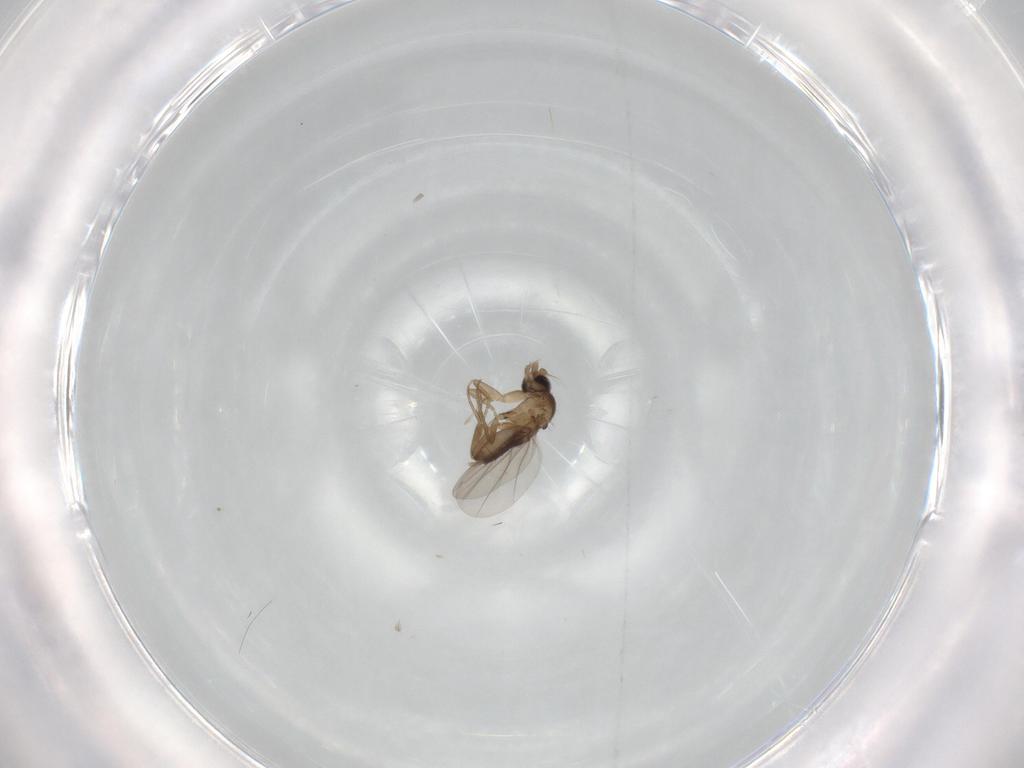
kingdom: Animalia
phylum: Arthropoda
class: Insecta
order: Diptera
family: Phoridae
